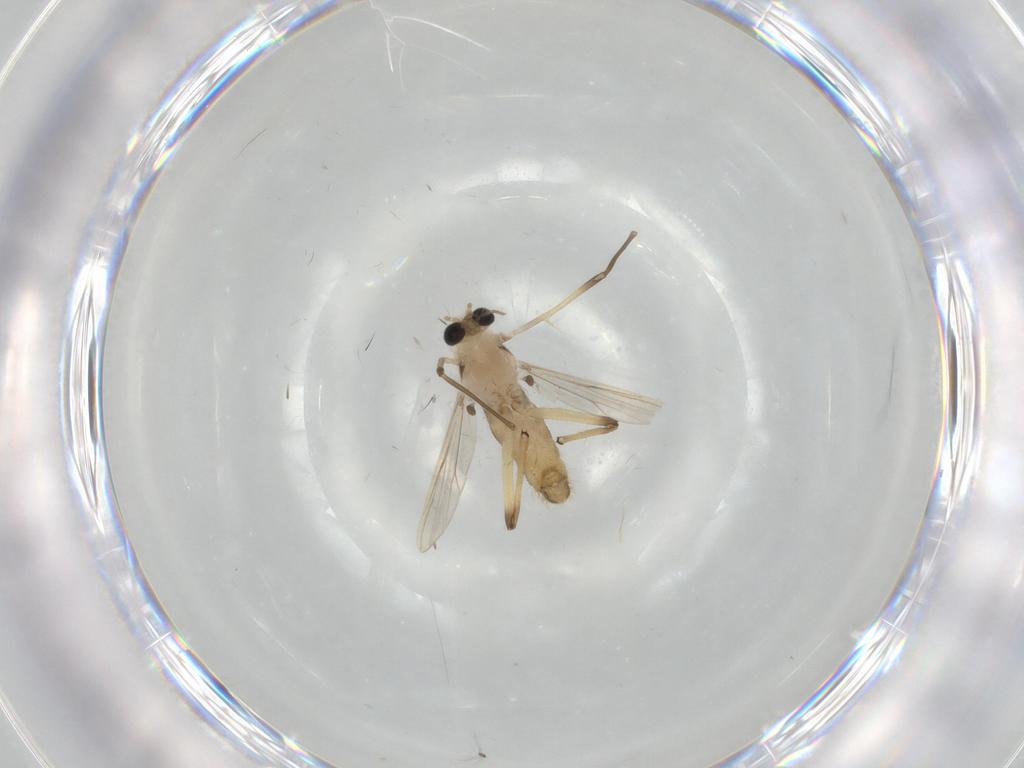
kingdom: Animalia
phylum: Arthropoda
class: Insecta
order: Diptera
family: Chironomidae
